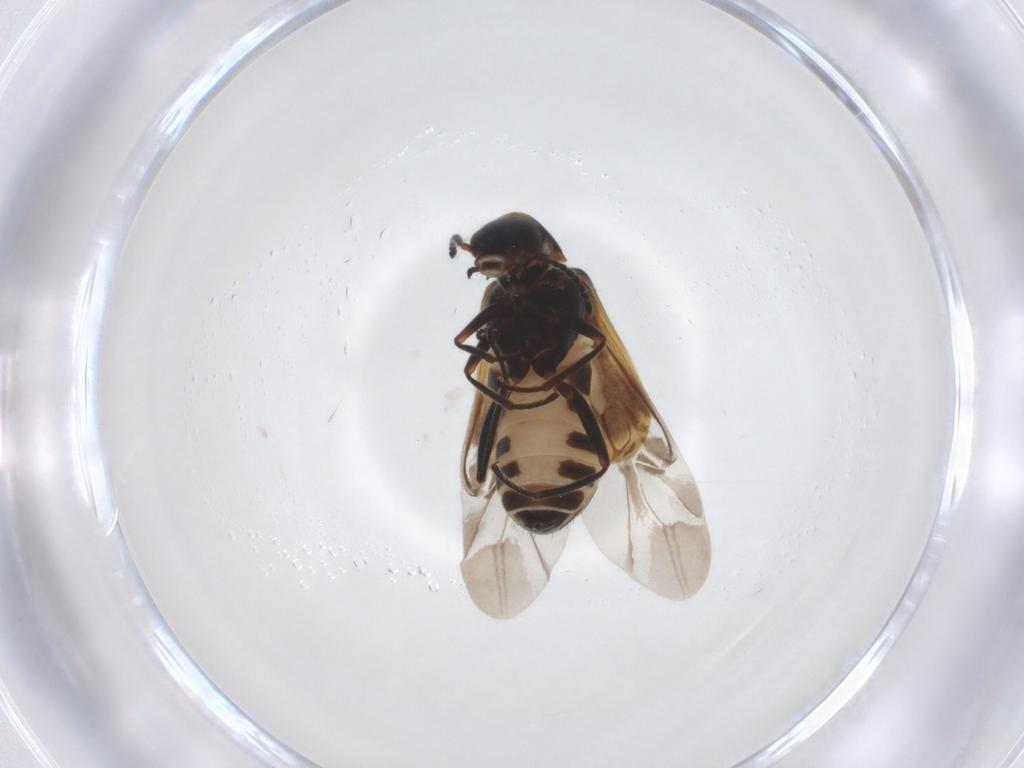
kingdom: Animalia
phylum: Arthropoda
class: Insecta
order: Coleoptera
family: Melyridae
